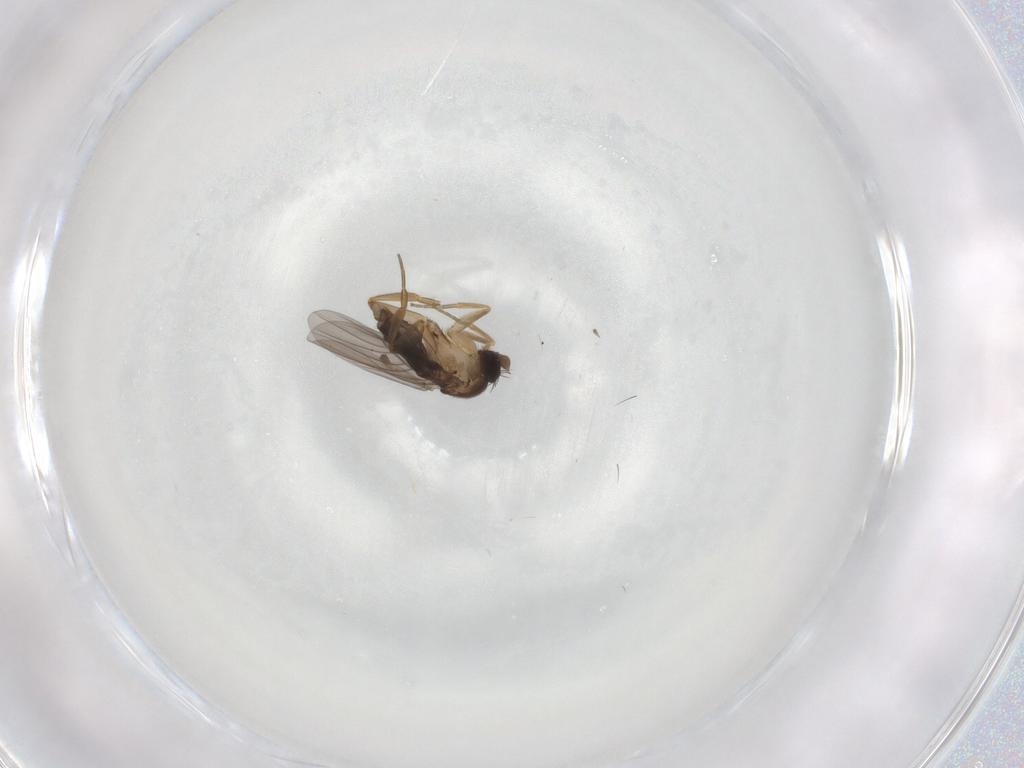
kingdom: Animalia
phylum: Arthropoda
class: Insecta
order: Diptera
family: Phoridae
